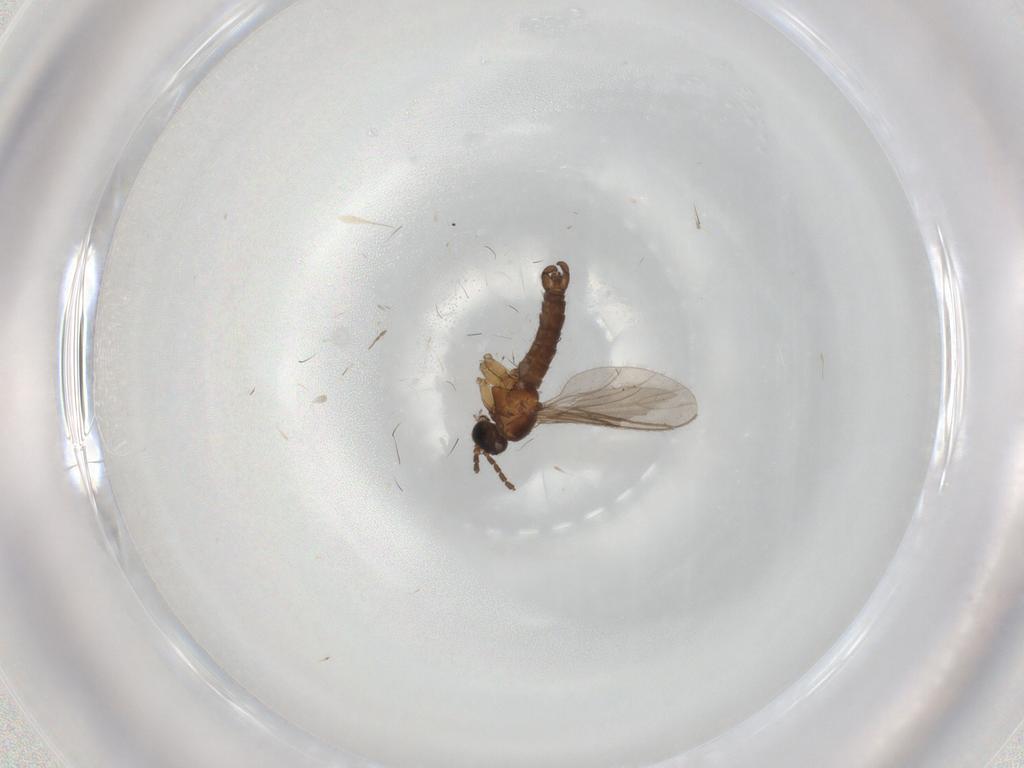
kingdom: Animalia
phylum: Arthropoda
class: Insecta
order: Diptera
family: Sciaridae
